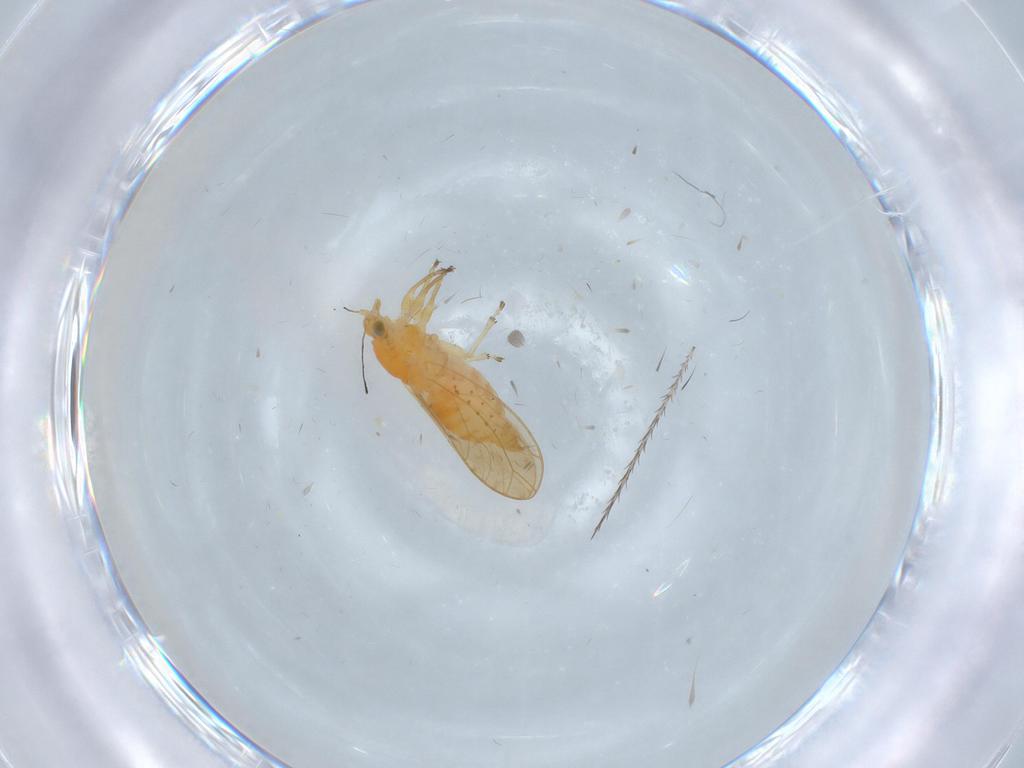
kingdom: Animalia
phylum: Arthropoda
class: Insecta
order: Hemiptera
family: Triozidae
